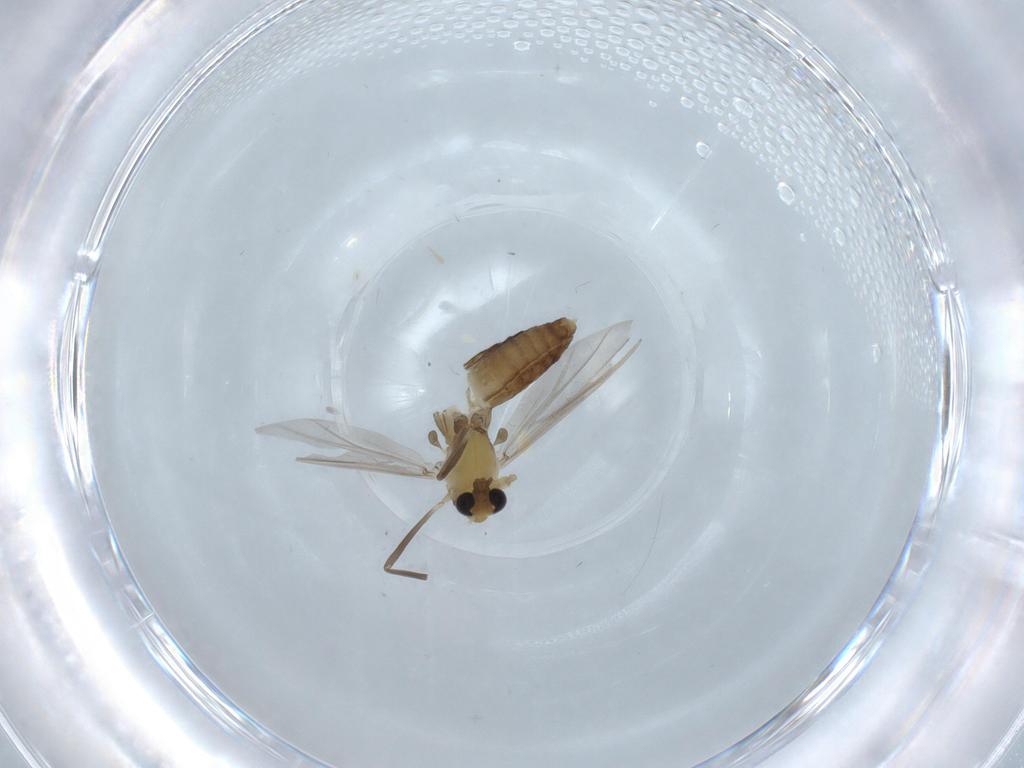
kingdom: Animalia
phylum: Arthropoda
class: Insecta
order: Diptera
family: Chironomidae
